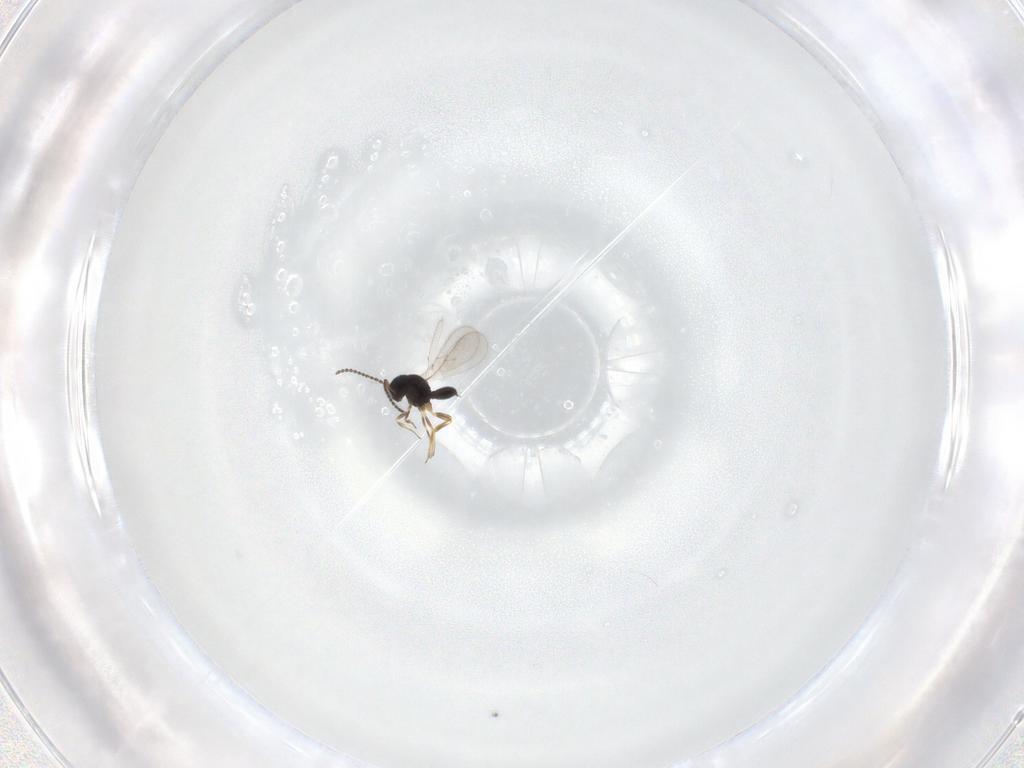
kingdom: Animalia
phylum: Arthropoda
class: Insecta
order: Hymenoptera
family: Scelionidae
